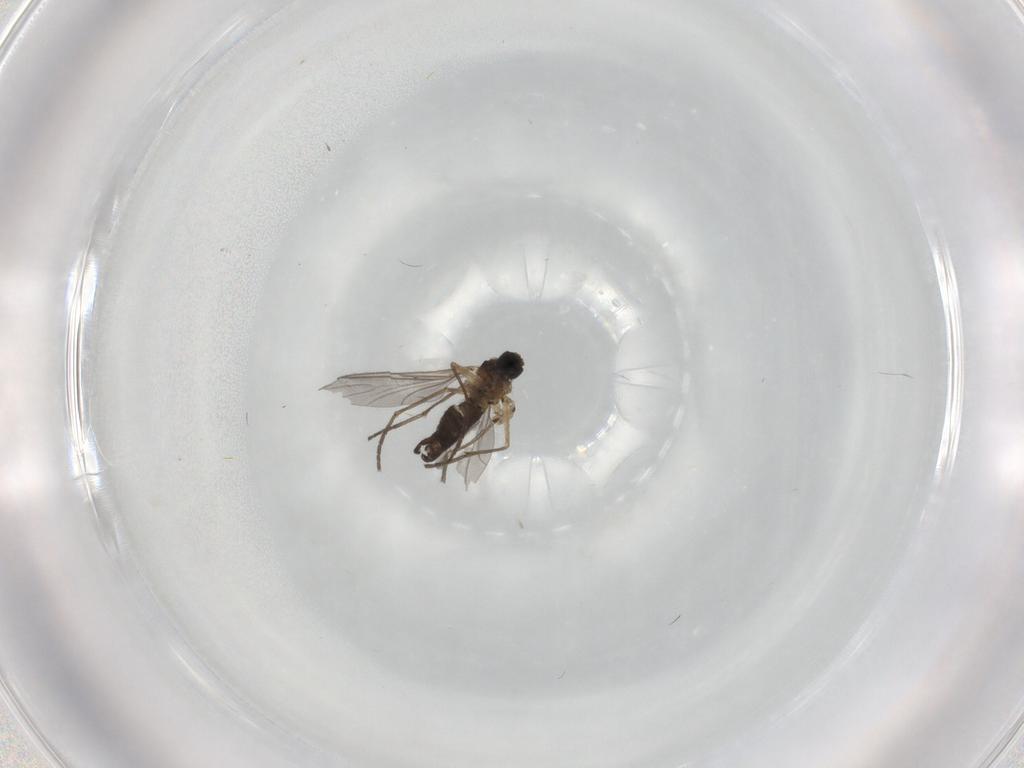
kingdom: Animalia
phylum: Arthropoda
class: Insecta
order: Diptera
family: Sciaridae
